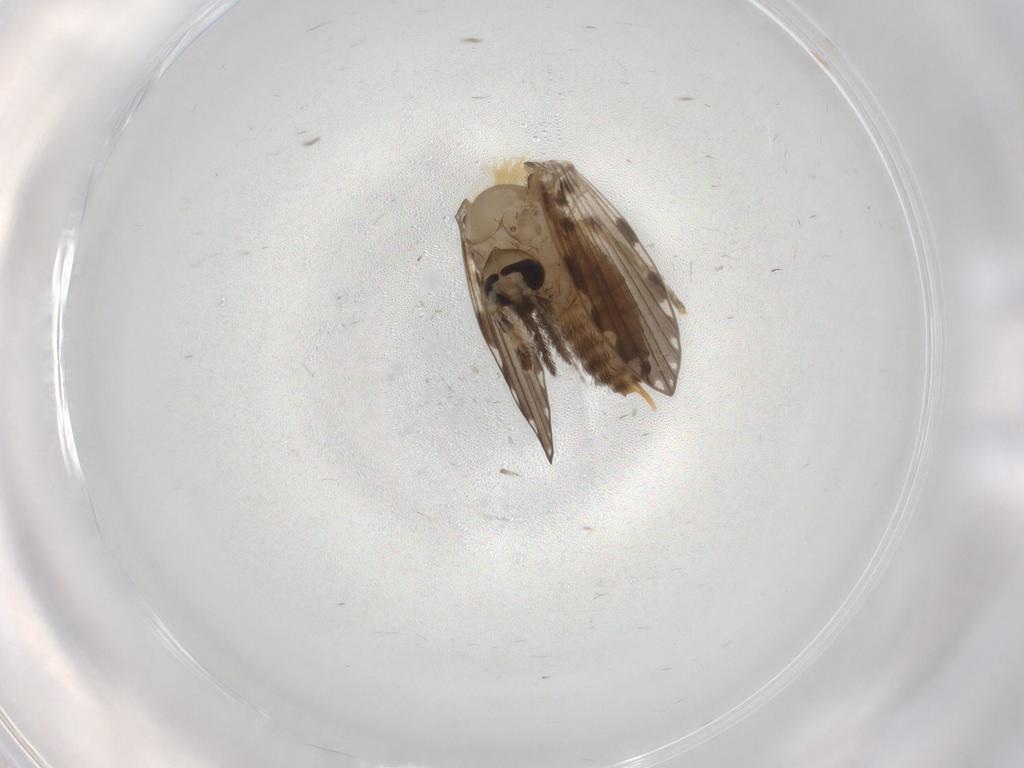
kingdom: Animalia
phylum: Arthropoda
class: Insecta
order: Diptera
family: Psychodidae
